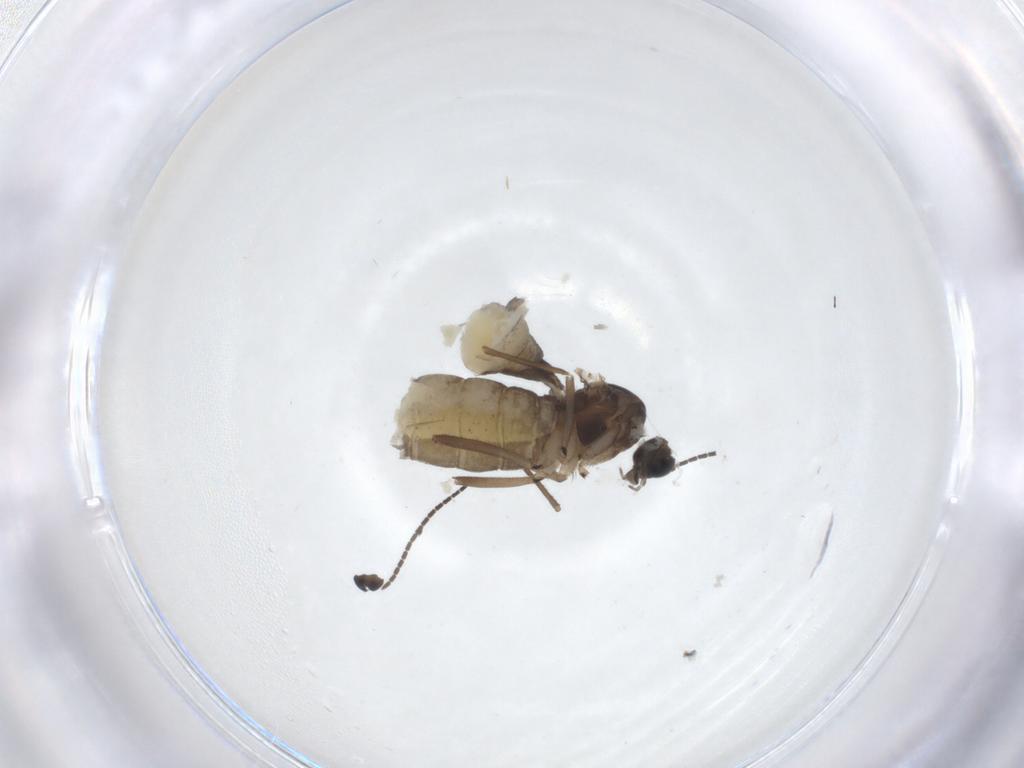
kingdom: Animalia
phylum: Arthropoda
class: Insecta
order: Diptera
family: Sciaridae
